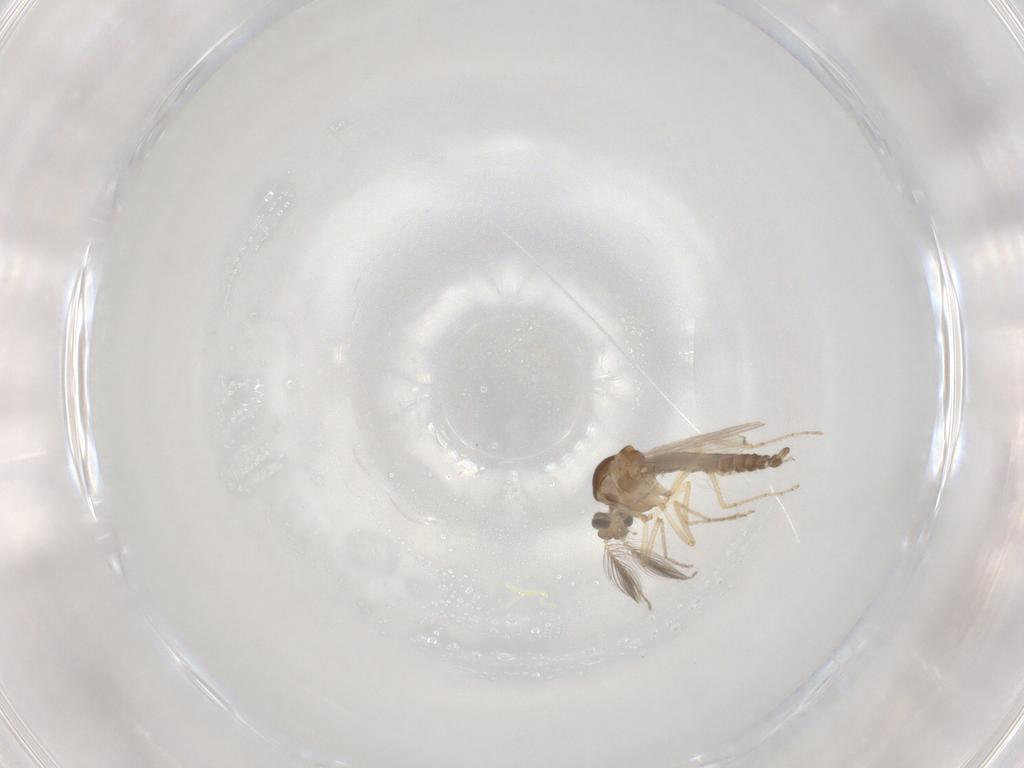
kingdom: Animalia
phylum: Arthropoda
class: Insecta
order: Diptera
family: Ceratopogonidae
